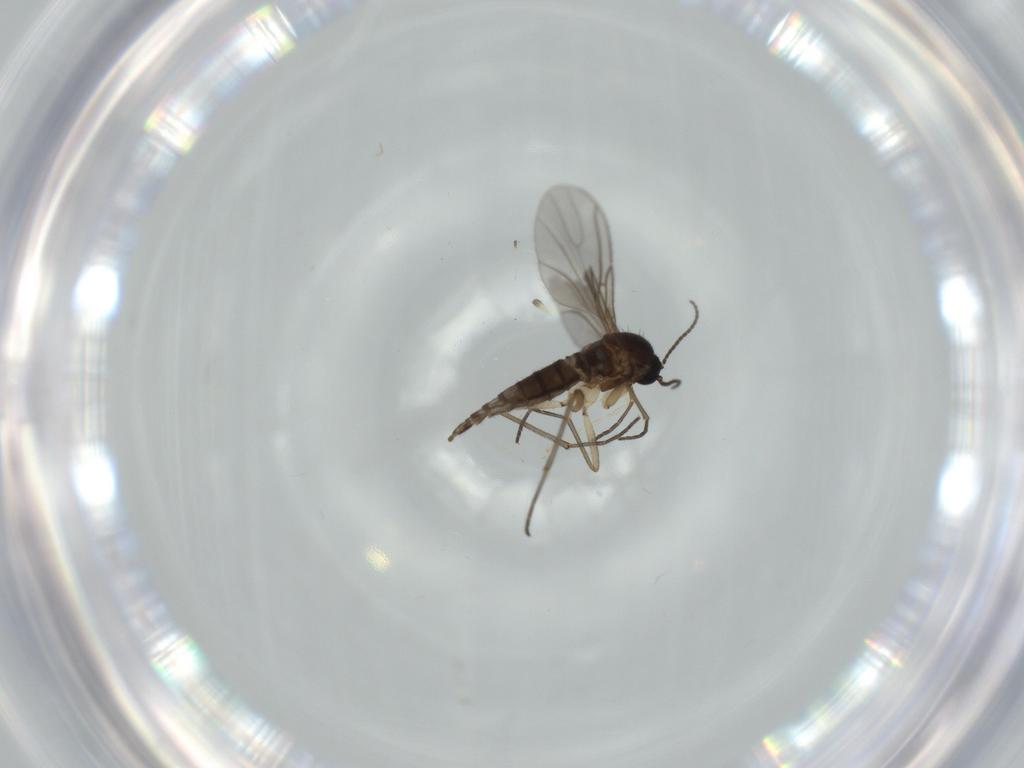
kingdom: Animalia
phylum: Arthropoda
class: Insecta
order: Diptera
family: Sciaridae
